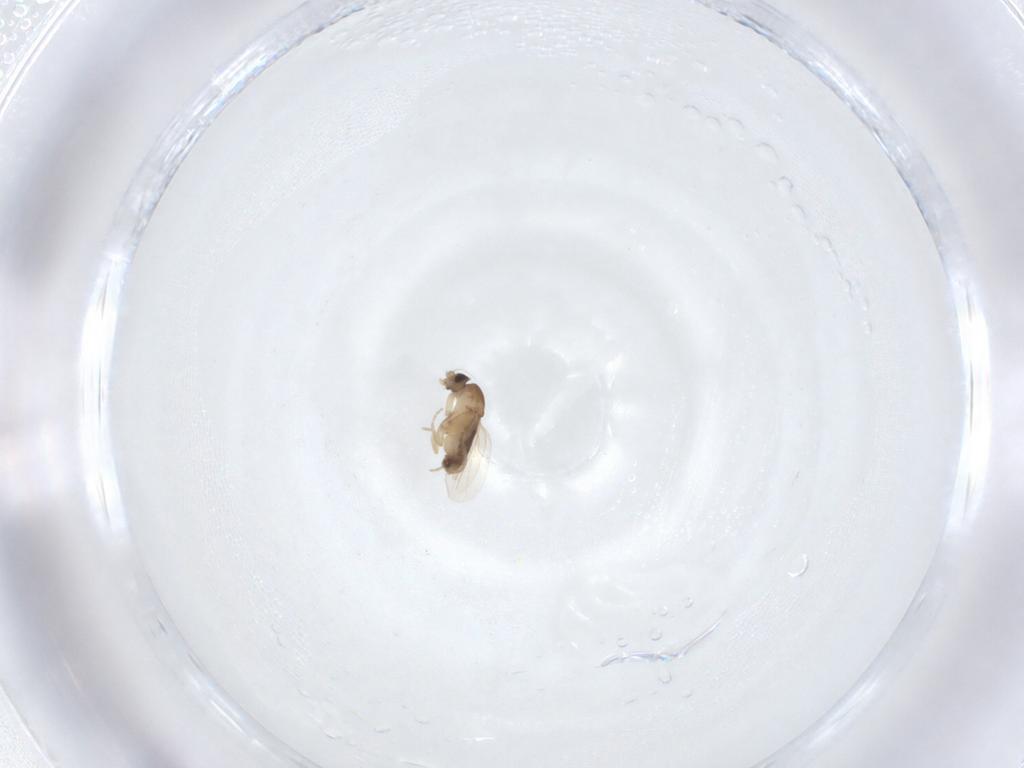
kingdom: Animalia
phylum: Arthropoda
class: Insecta
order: Diptera
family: Phoridae
